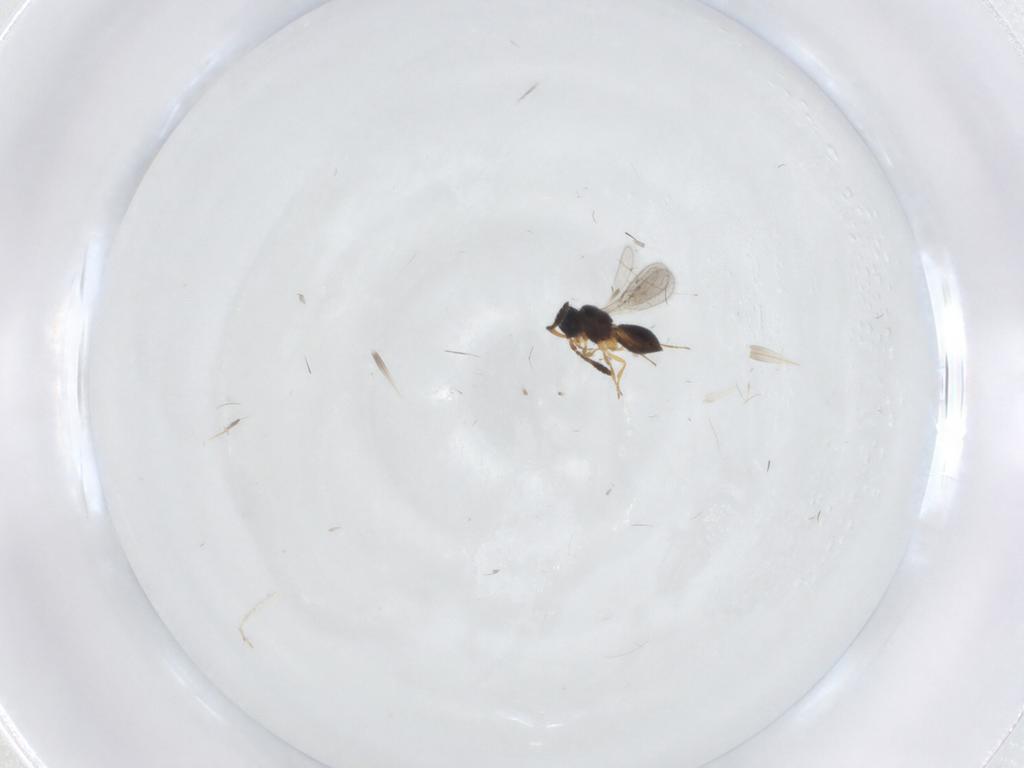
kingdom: Animalia
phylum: Arthropoda
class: Insecta
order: Hymenoptera
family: Scelionidae
